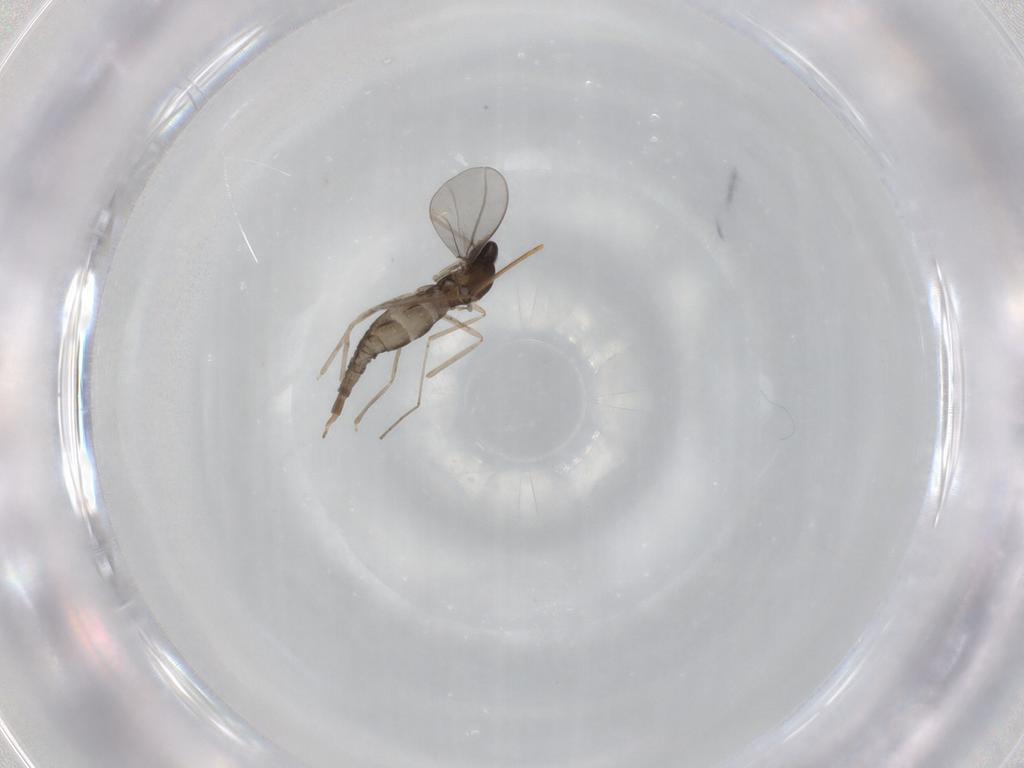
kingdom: Animalia
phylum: Arthropoda
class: Insecta
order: Diptera
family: Cecidomyiidae
